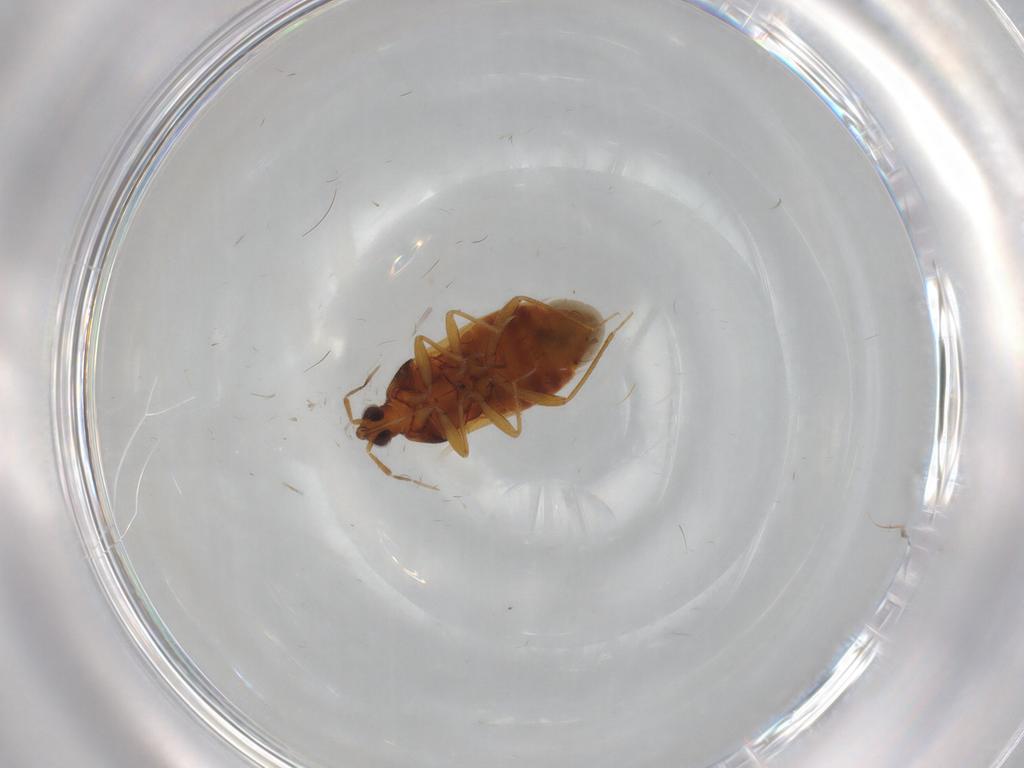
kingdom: Animalia
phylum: Arthropoda
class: Insecta
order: Hemiptera
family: Anthocoridae
